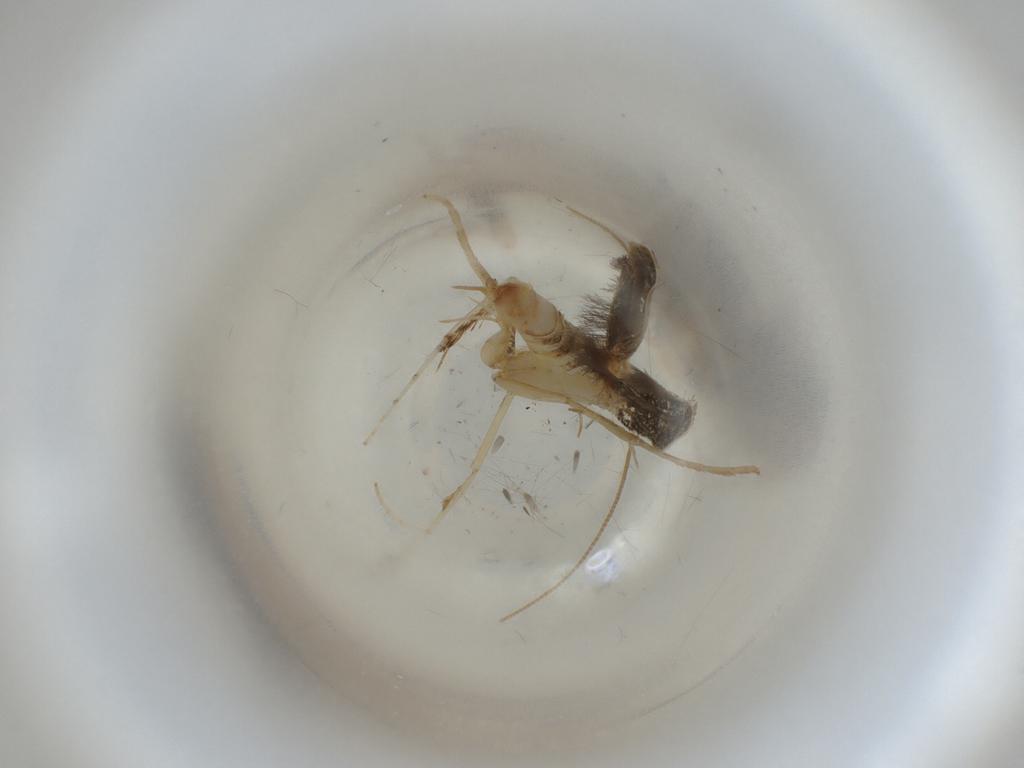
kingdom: Animalia
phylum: Arthropoda
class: Insecta
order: Lepidoptera
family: Gracillariidae
